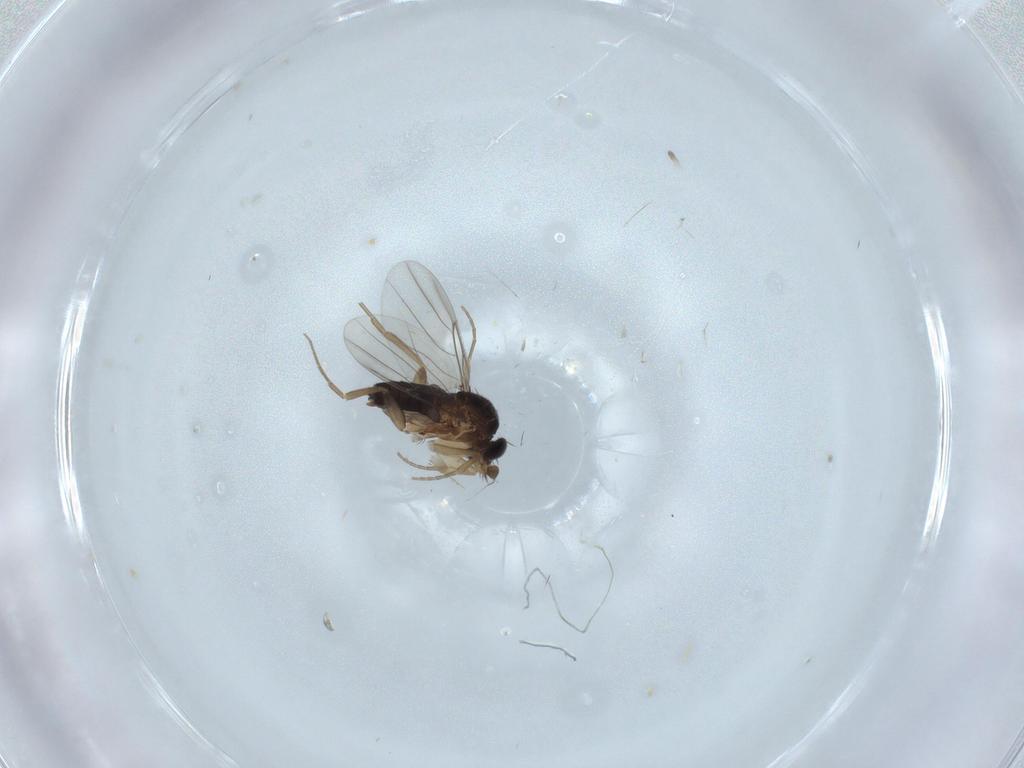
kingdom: Animalia
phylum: Arthropoda
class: Insecta
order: Diptera
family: Phoridae
